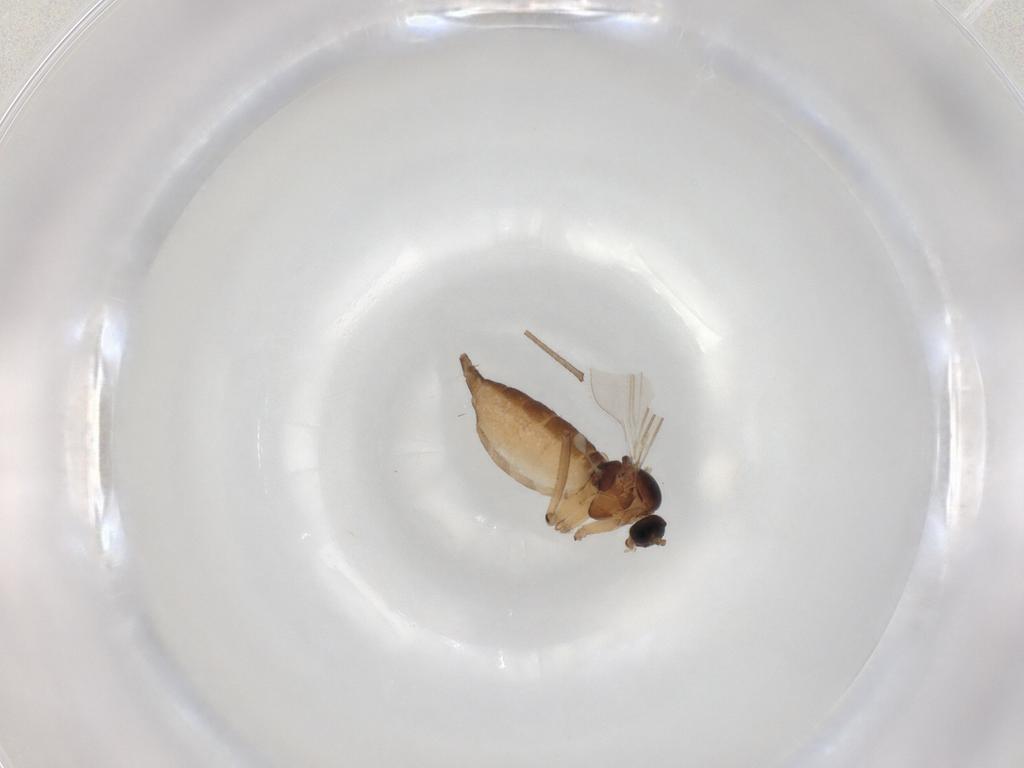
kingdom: Animalia
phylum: Arthropoda
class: Insecta
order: Diptera
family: Sciaridae
